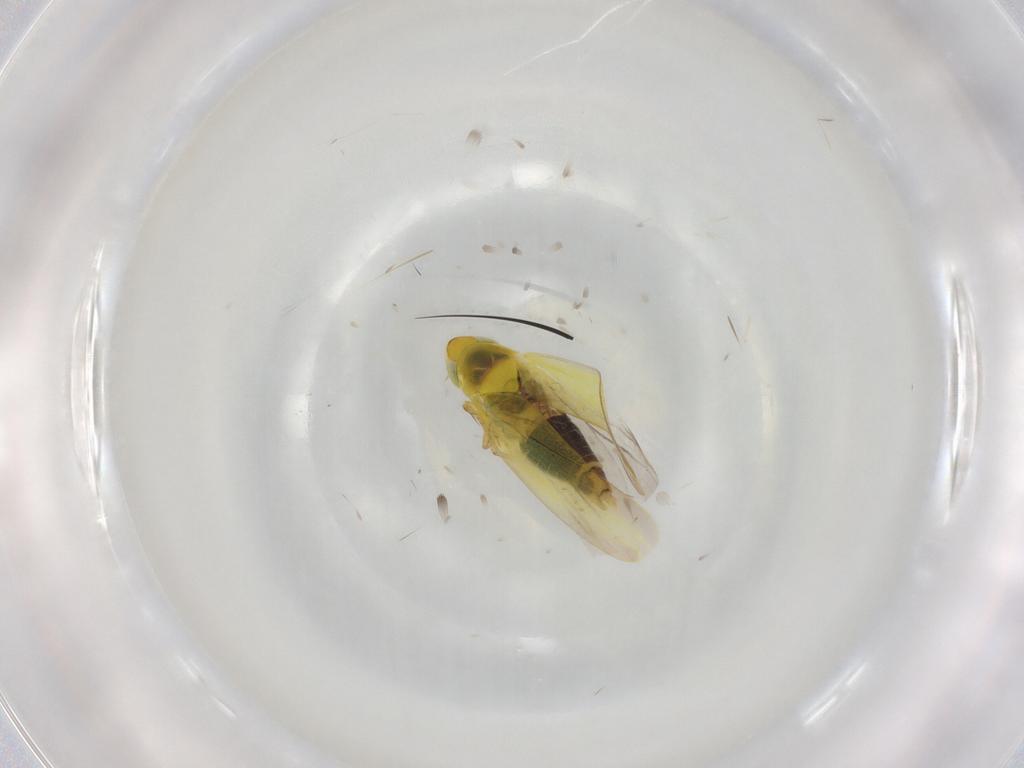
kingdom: Animalia
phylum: Arthropoda
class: Insecta
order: Hemiptera
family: Cicadellidae
